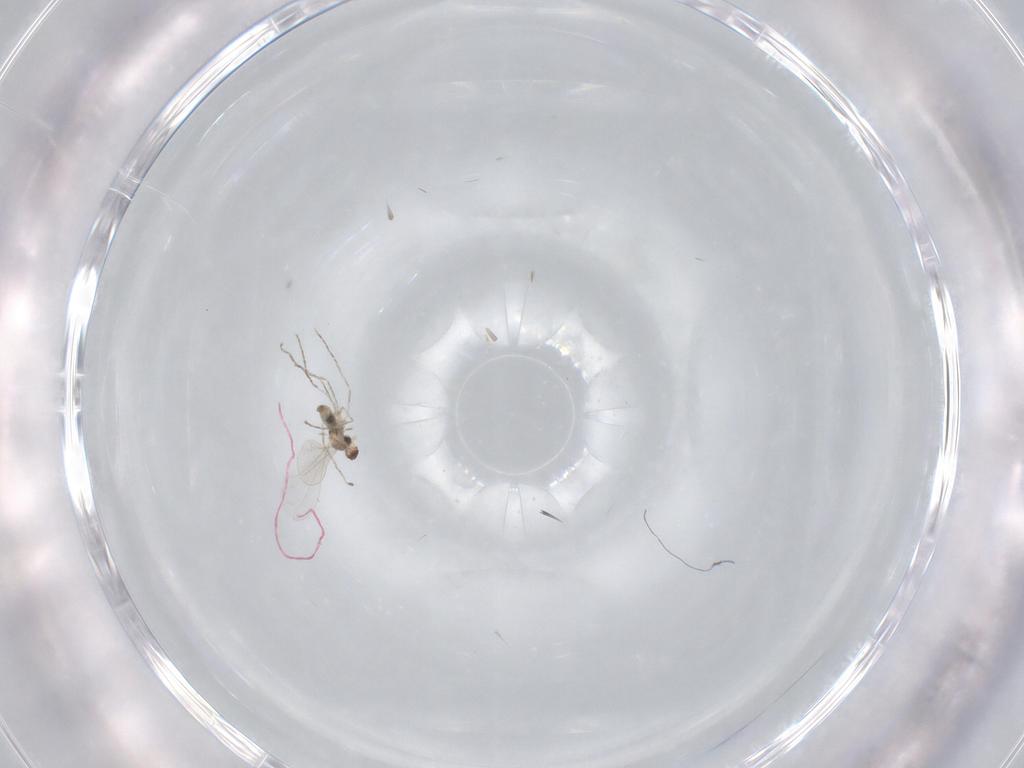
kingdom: Animalia
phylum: Arthropoda
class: Insecta
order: Diptera
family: Cecidomyiidae
